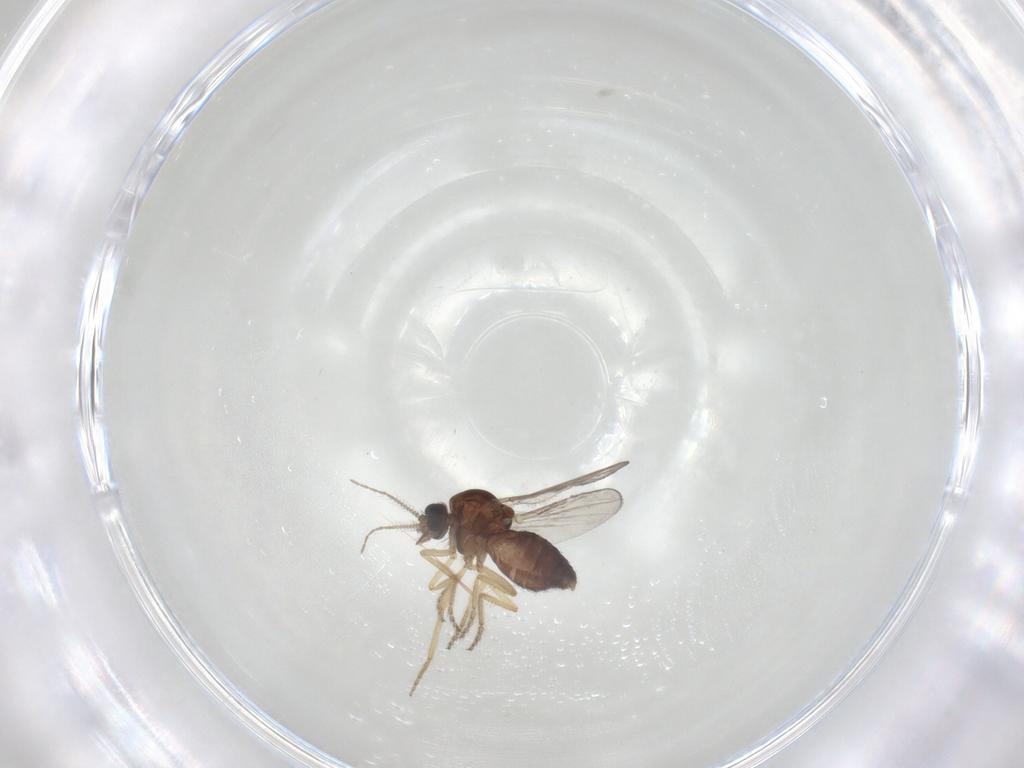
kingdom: Animalia
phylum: Arthropoda
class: Insecta
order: Diptera
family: Ceratopogonidae
